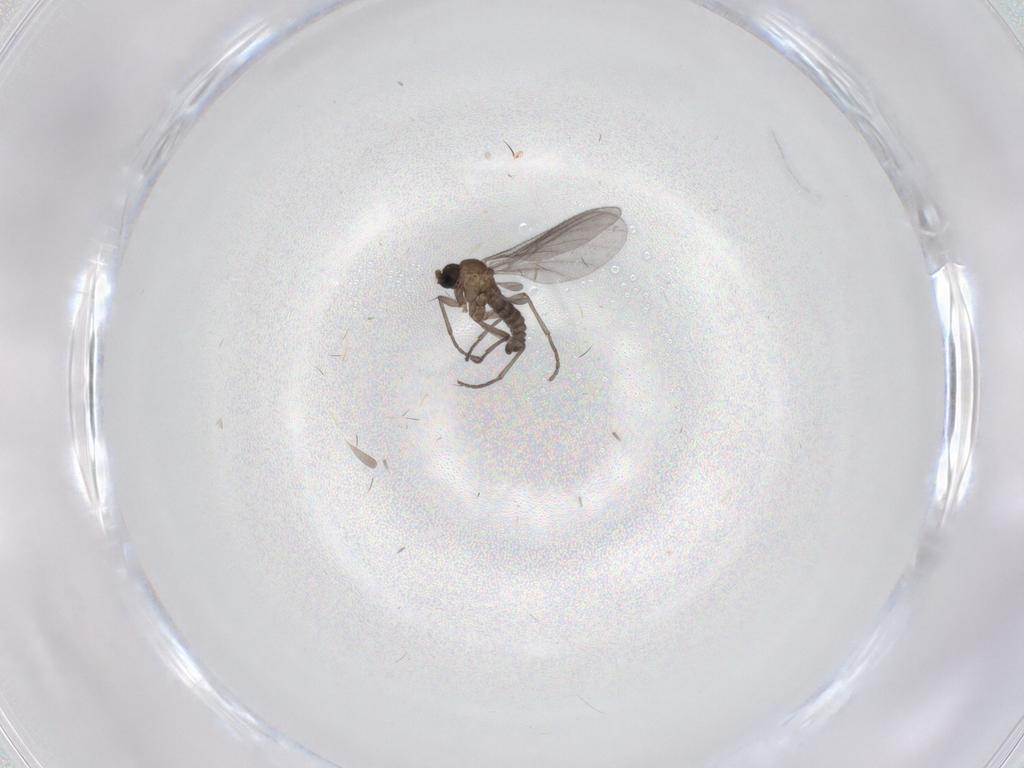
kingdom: Animalia
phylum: Arthropoda
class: Insecta
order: Diptera
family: Sciaridae
